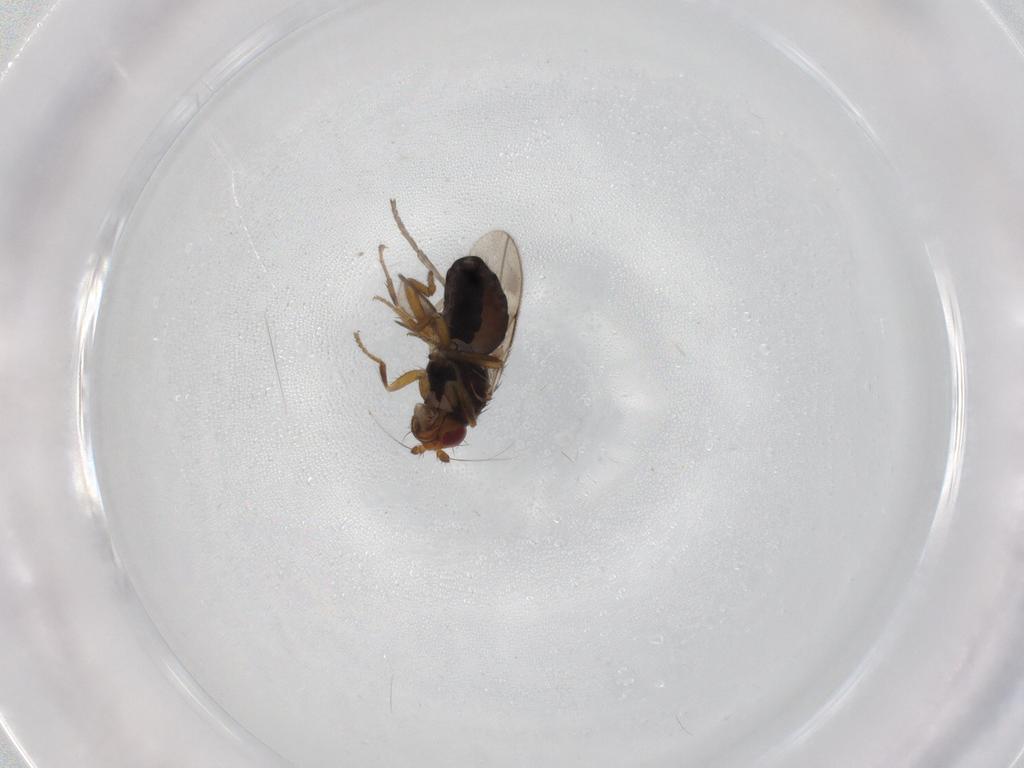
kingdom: Animalia
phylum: Arthropoda
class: Insecta
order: Diptera
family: Sphaeroceridae
